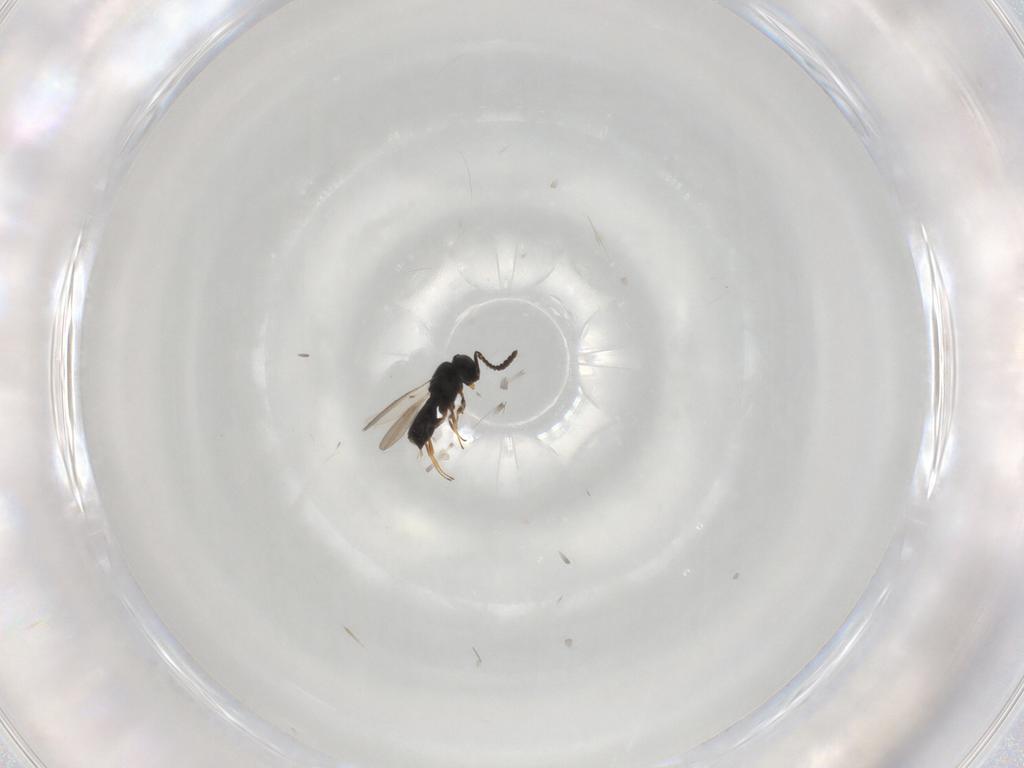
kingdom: Animalia
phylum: Arthropoda
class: Insecta
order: Hymenoptera
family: Scelionidae
